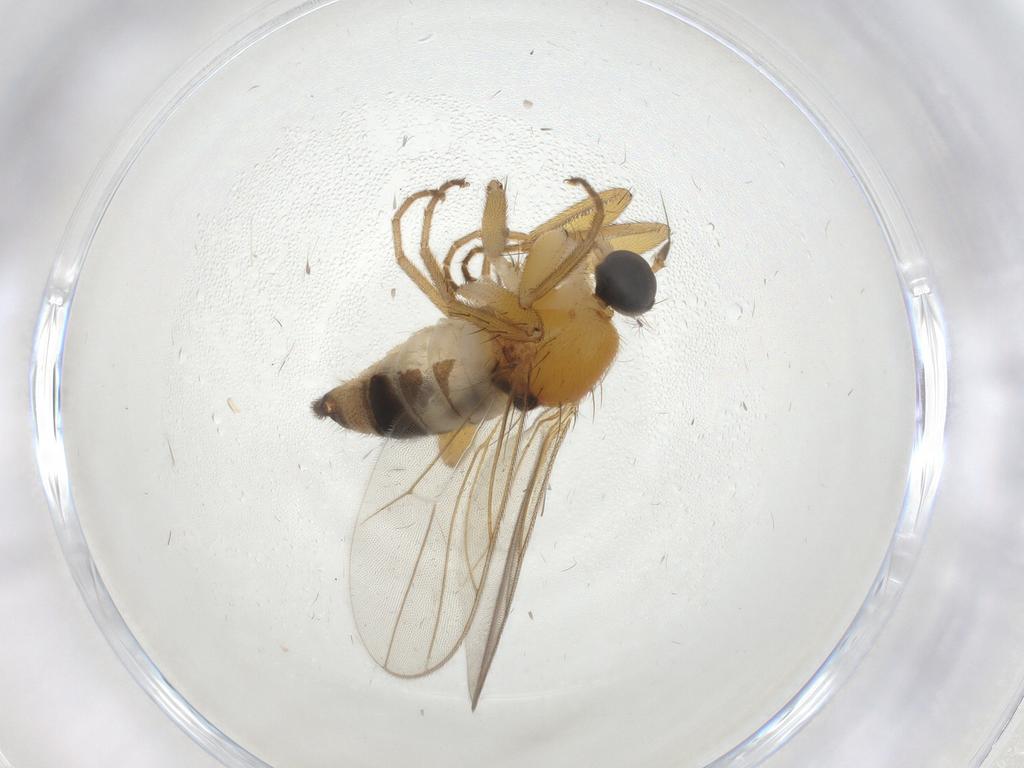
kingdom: Animalia
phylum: Arthropoda
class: Insecta
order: Diptera
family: Hybotidae
